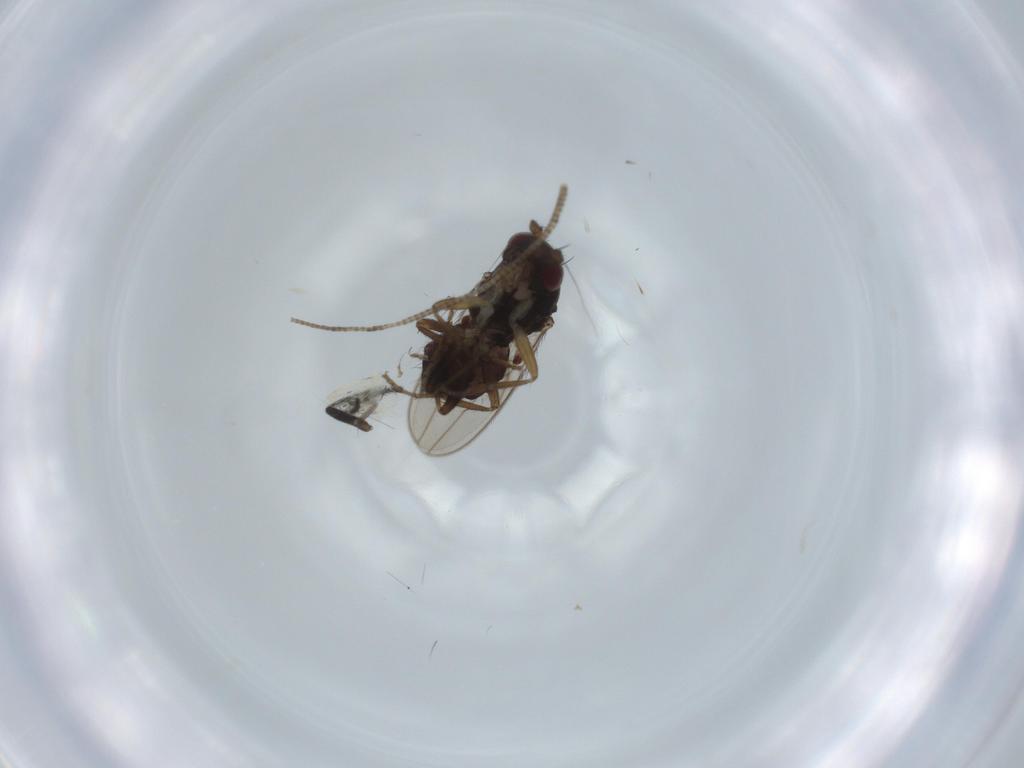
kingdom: Animalia
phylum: Arthropoda
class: Insecta
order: Diptera
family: Sphaeroceridae
